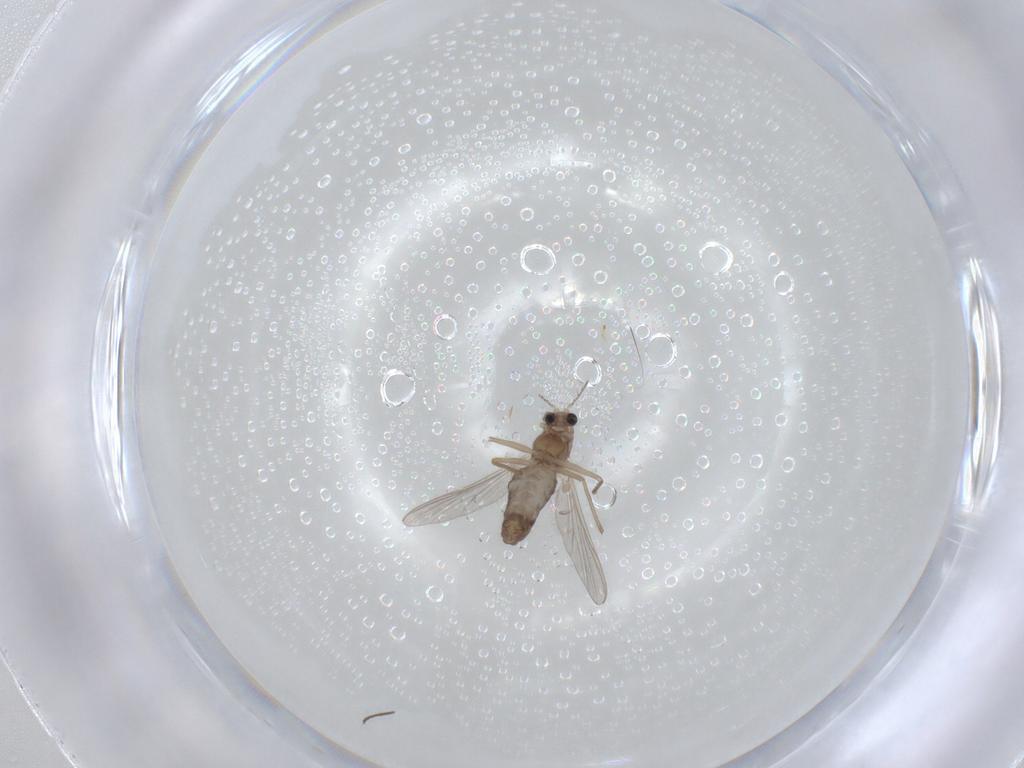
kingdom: Animalia
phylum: Arthropoda
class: Insecta
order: Diptera
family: Chironomidae
